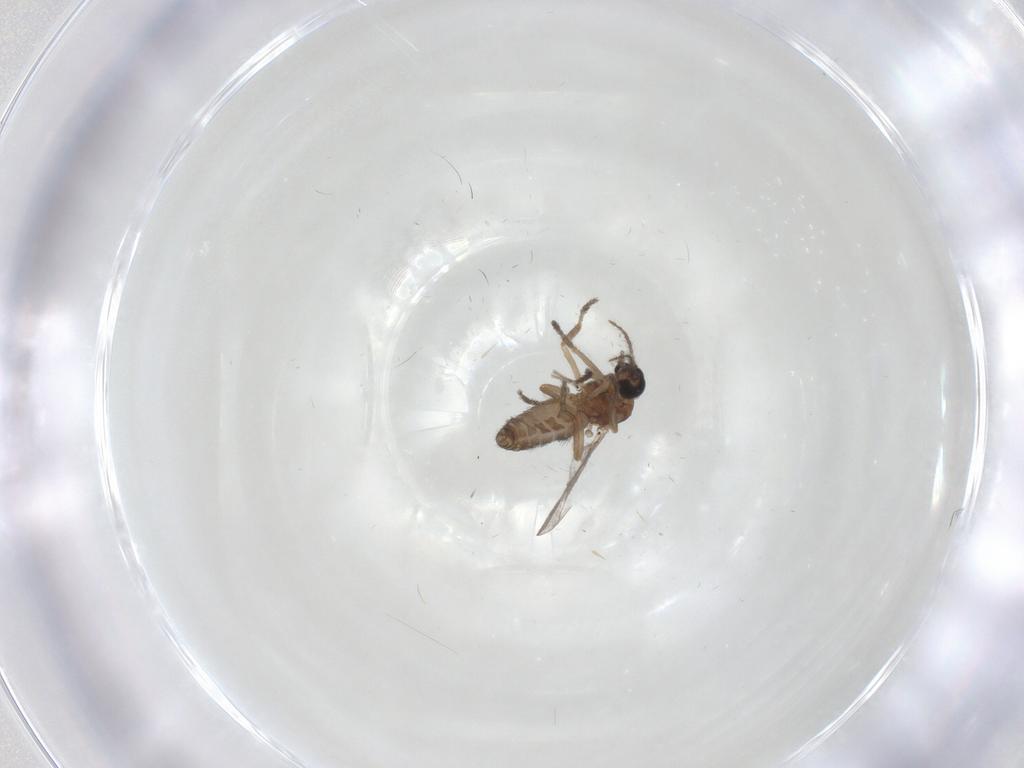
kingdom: Animalia
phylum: Arthropoda
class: Insecta
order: Diptera
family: Ceratopogonidae
